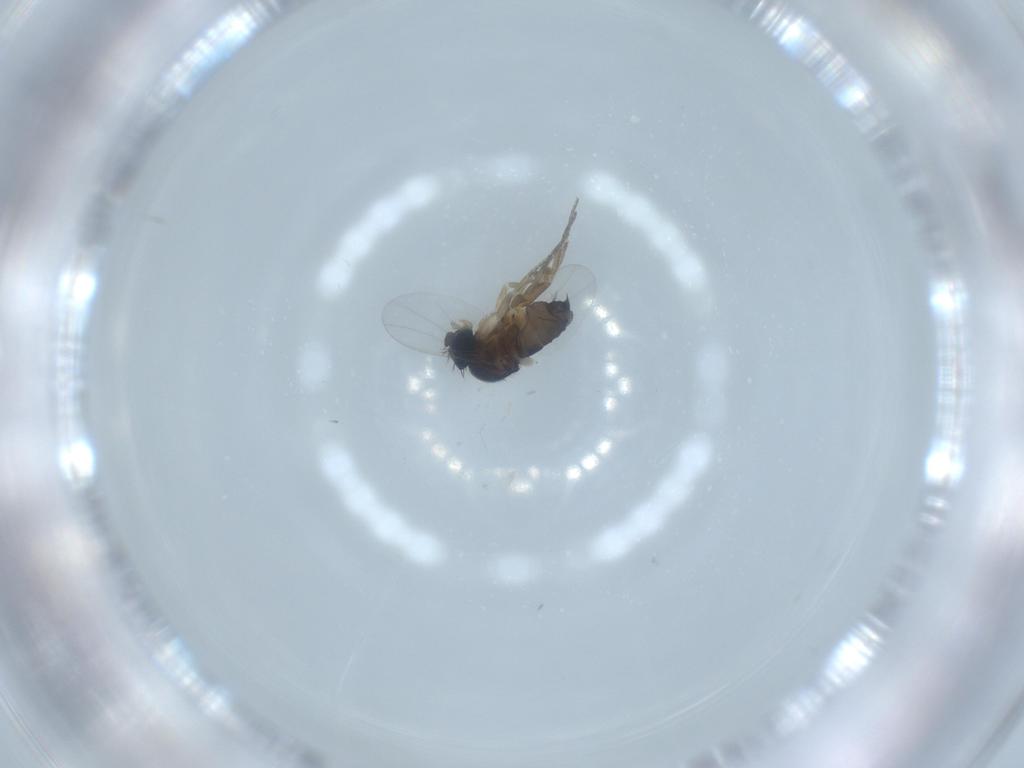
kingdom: Animalia
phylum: Arthropoda
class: Insecta
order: Diptera
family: Sciaridae
